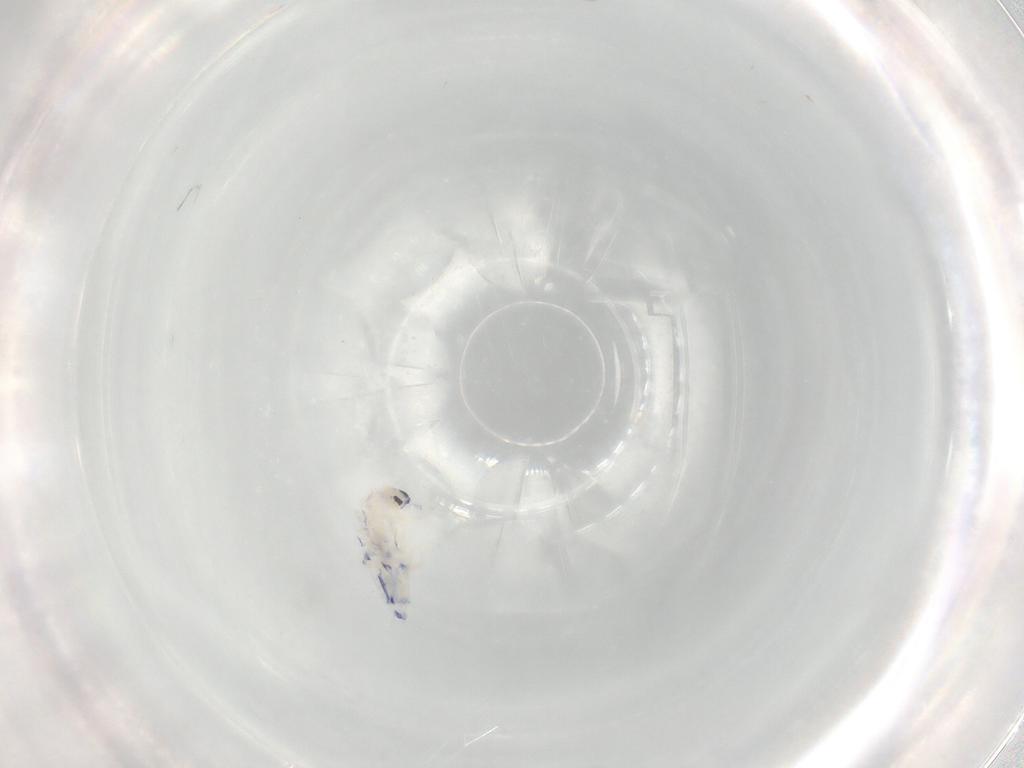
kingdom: Animalia
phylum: Arthropoda
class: Collembola
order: Entomobryomorpha
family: Entomobryidae
